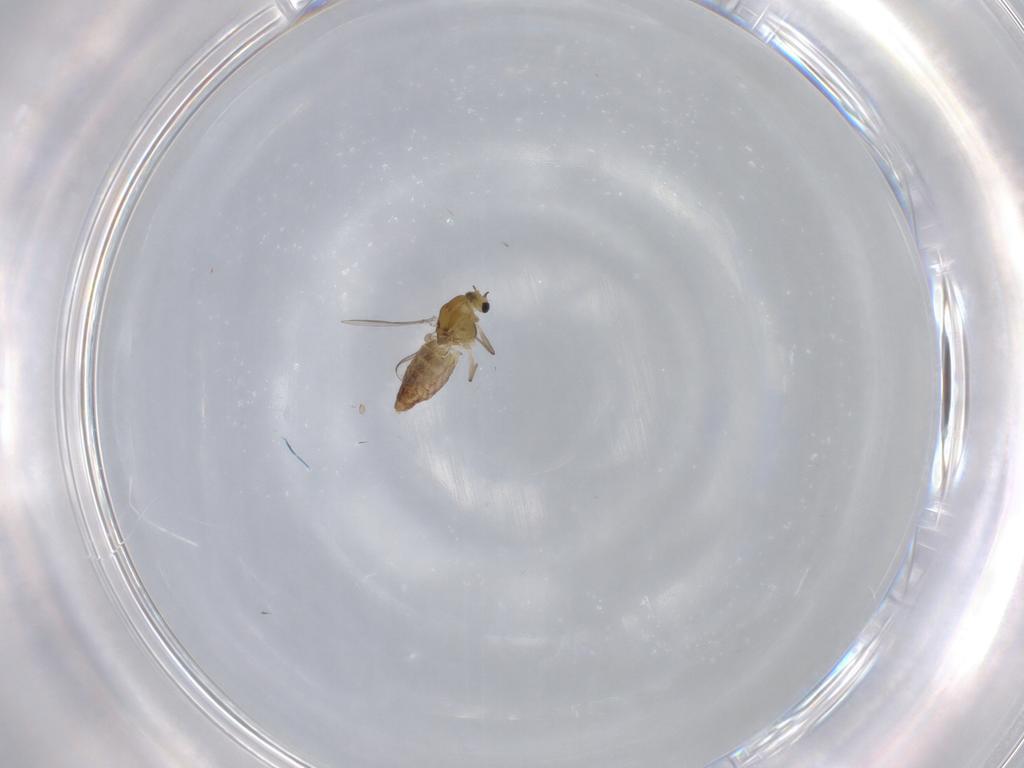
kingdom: Animalia
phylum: Arthropoda
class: Insecta
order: Diptera
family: Chironomidae
